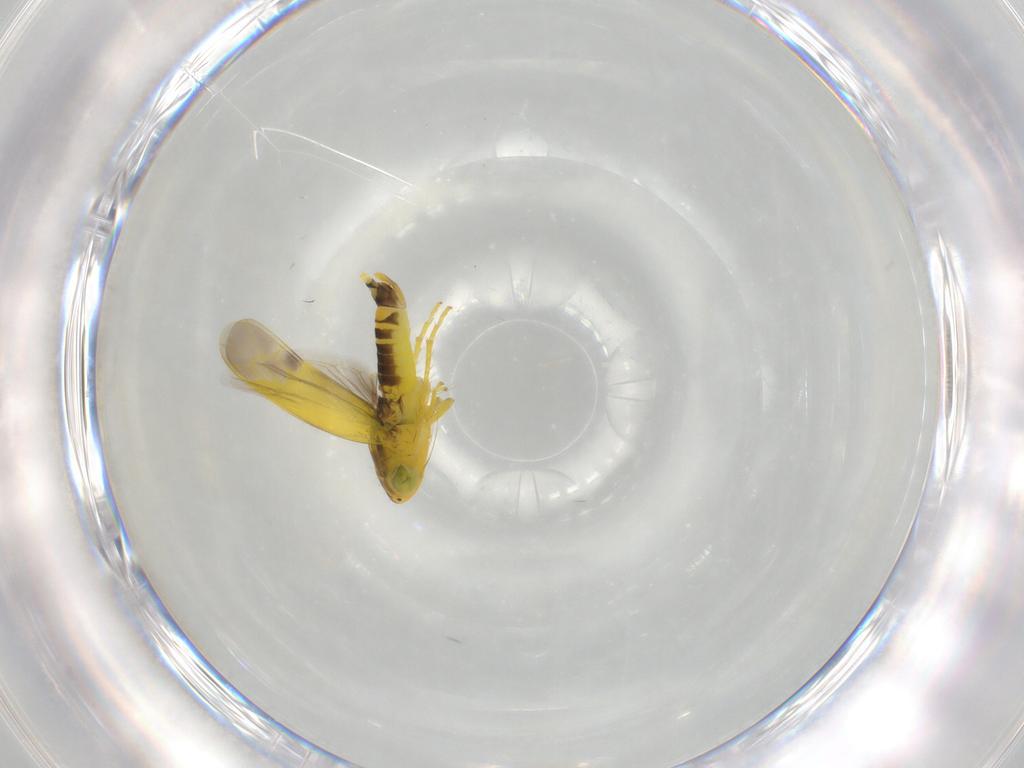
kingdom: Animalia
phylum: Arthropoda
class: Insecta
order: Hemiptera
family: Cicadellidae
